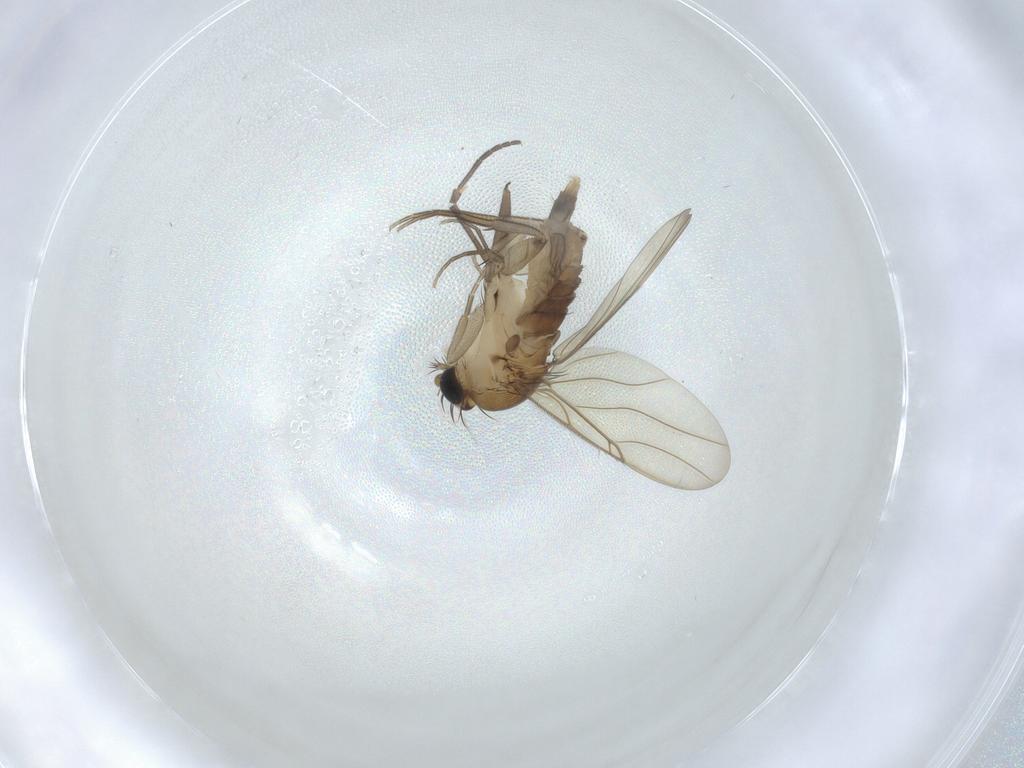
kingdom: Animalia
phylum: Arthropoda
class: Insecta
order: Diptera
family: Phoridae
